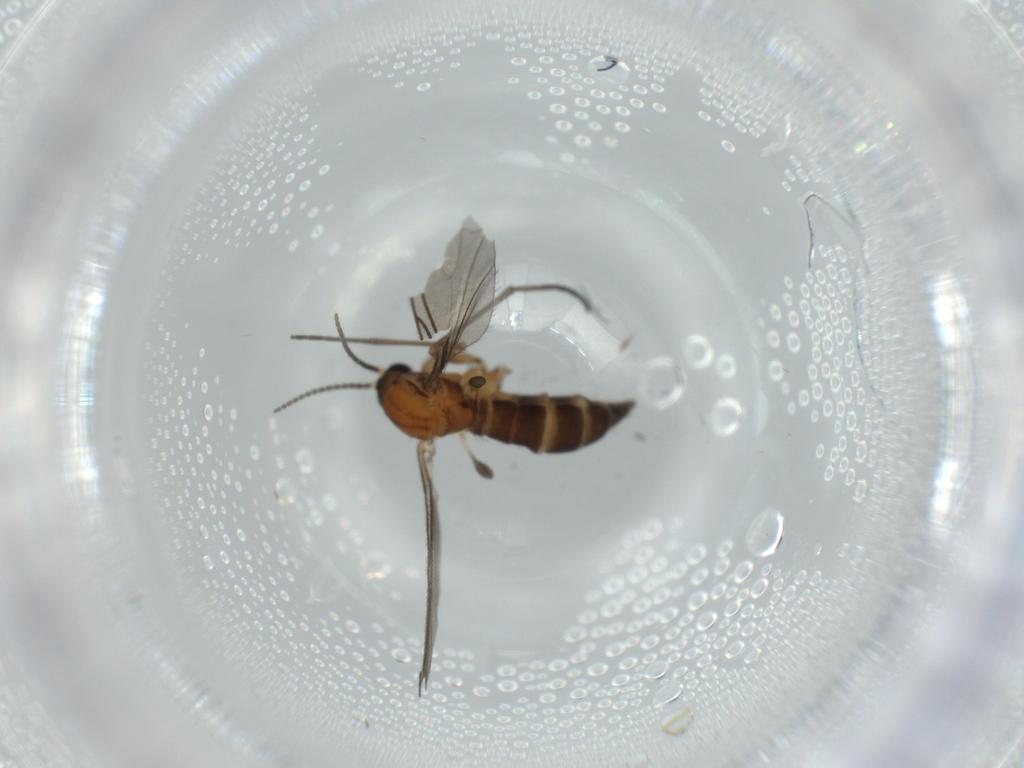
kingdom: Animalia
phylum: Arthropoda
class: Insecta
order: Diptera
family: Sciaridae
